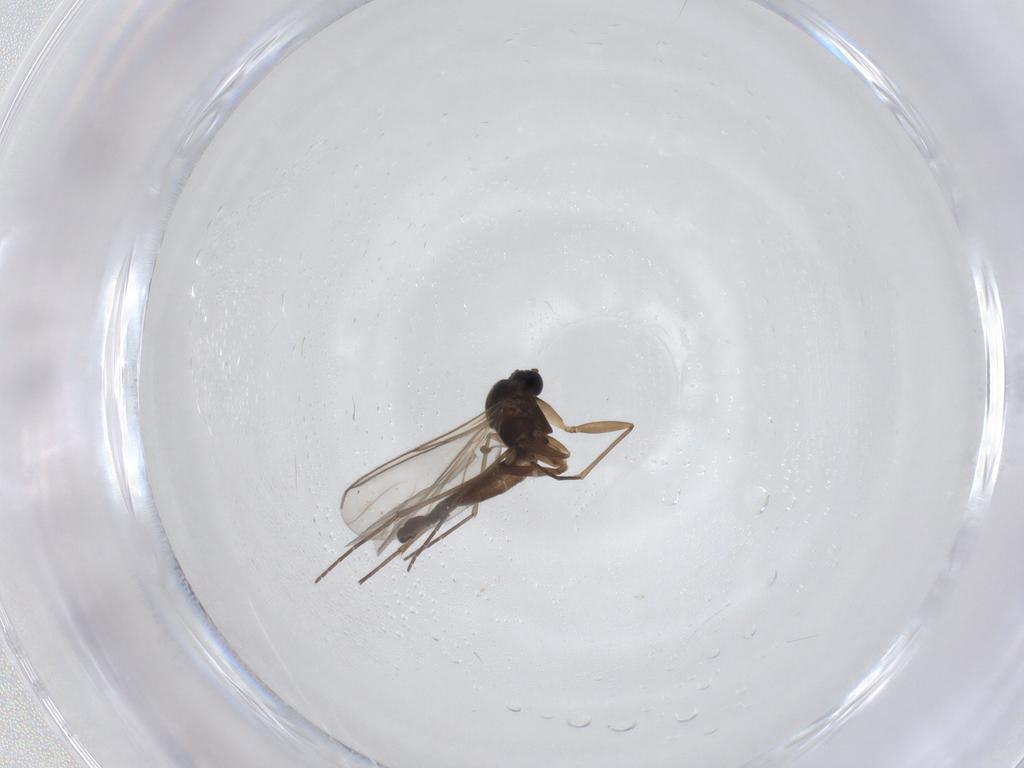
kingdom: Animalia
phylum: Arthropoda
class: Insecta
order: Diptera
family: Sciaridae
